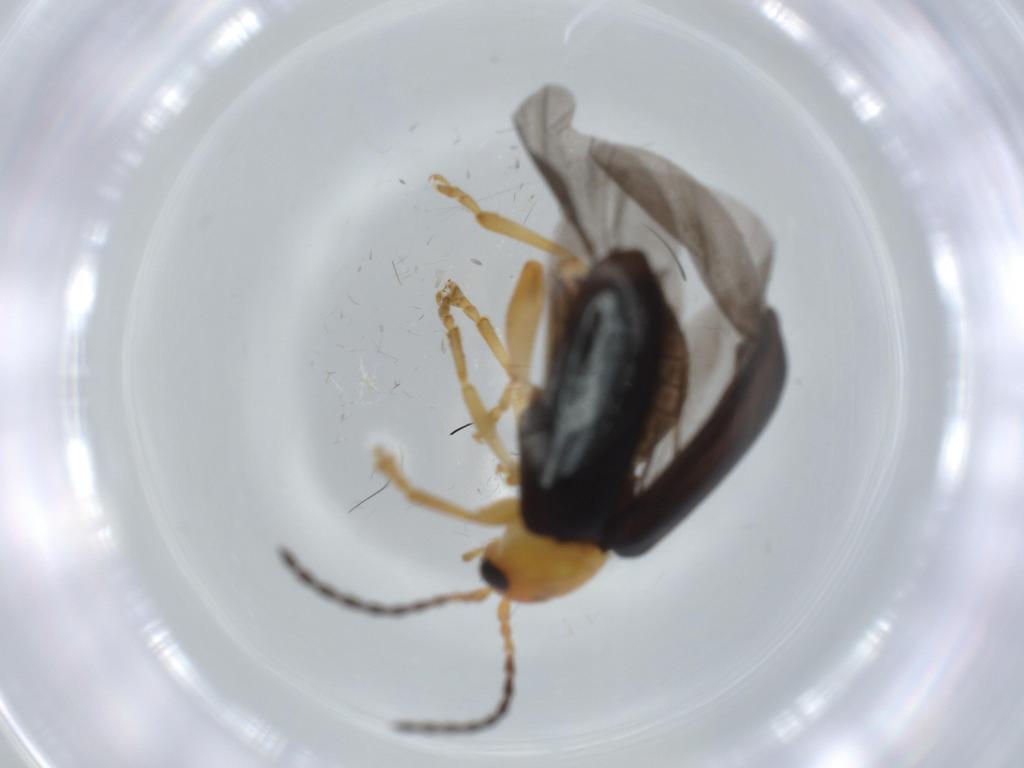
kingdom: Animalia
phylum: Arthropoda
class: Insecta
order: Coleoptera
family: Chrysomelidae
